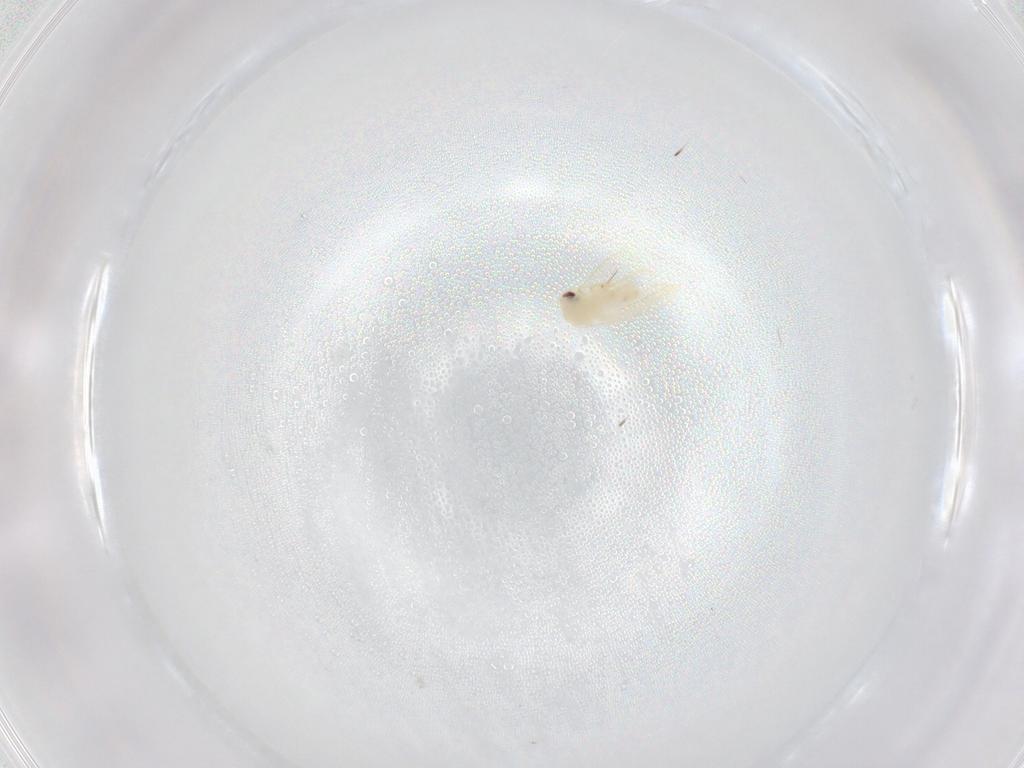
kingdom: Animalia
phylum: Arthropoda
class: Insecta
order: Hemiptera
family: Aleyrodidae
